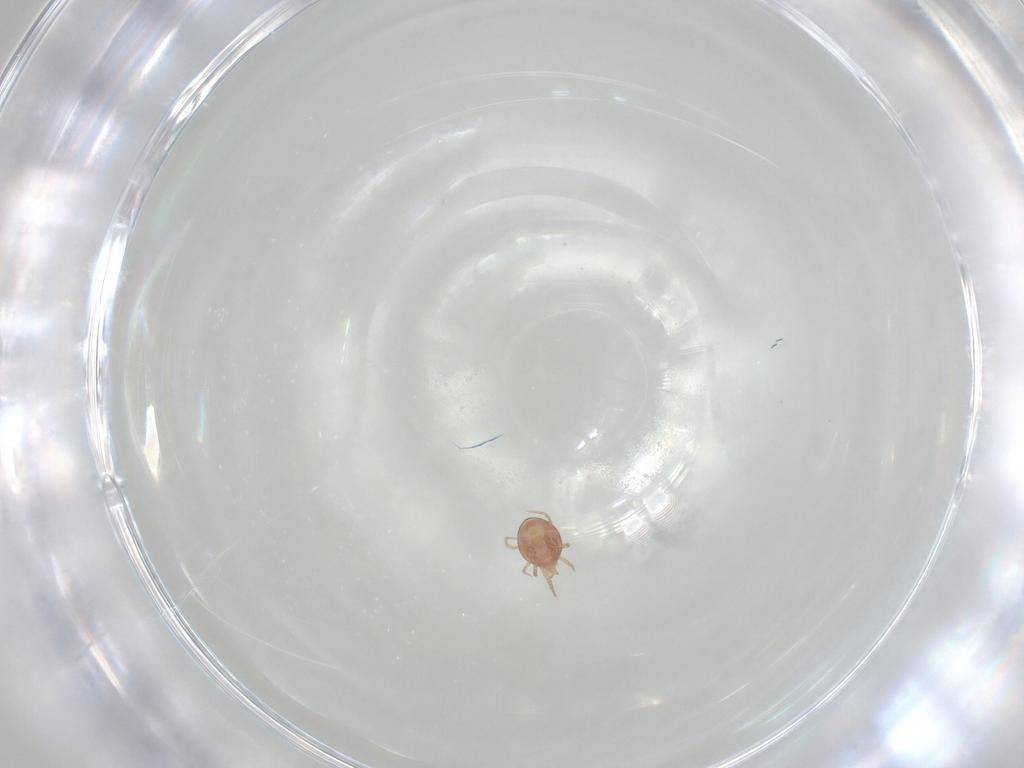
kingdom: Animalia
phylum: Arthropoda
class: Arachnida
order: Mesostigmata
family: Phytoseiidae
